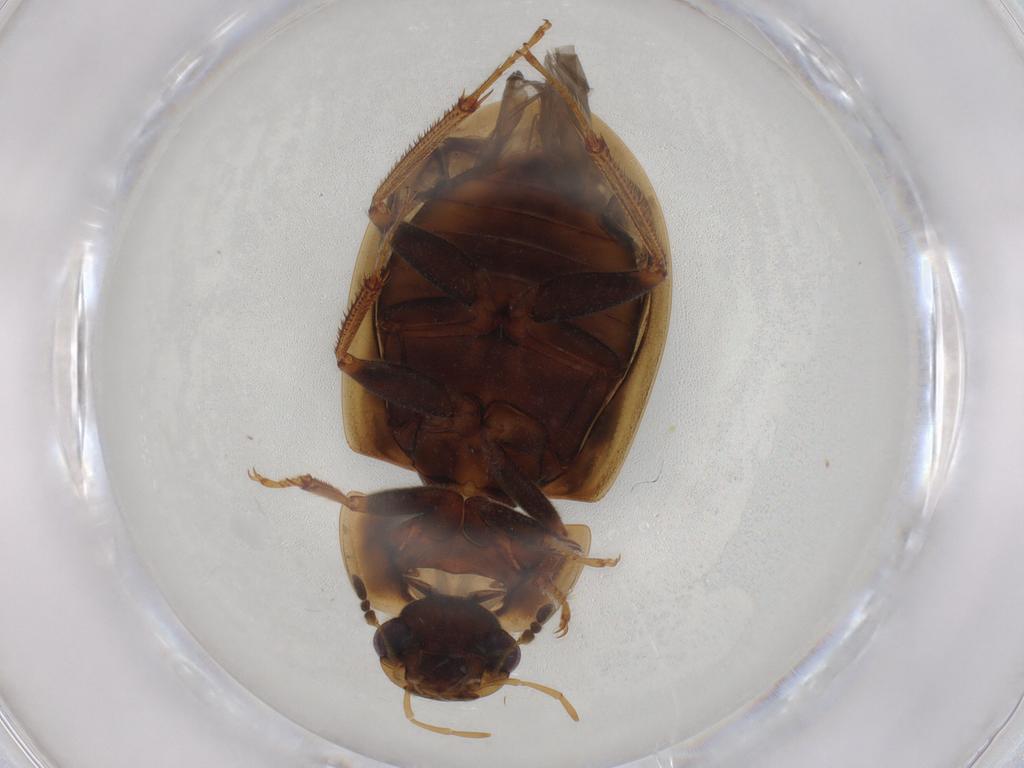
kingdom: Animalia
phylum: Arthropoda
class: Insecta
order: Coleoptera
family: Hydrophilidae
